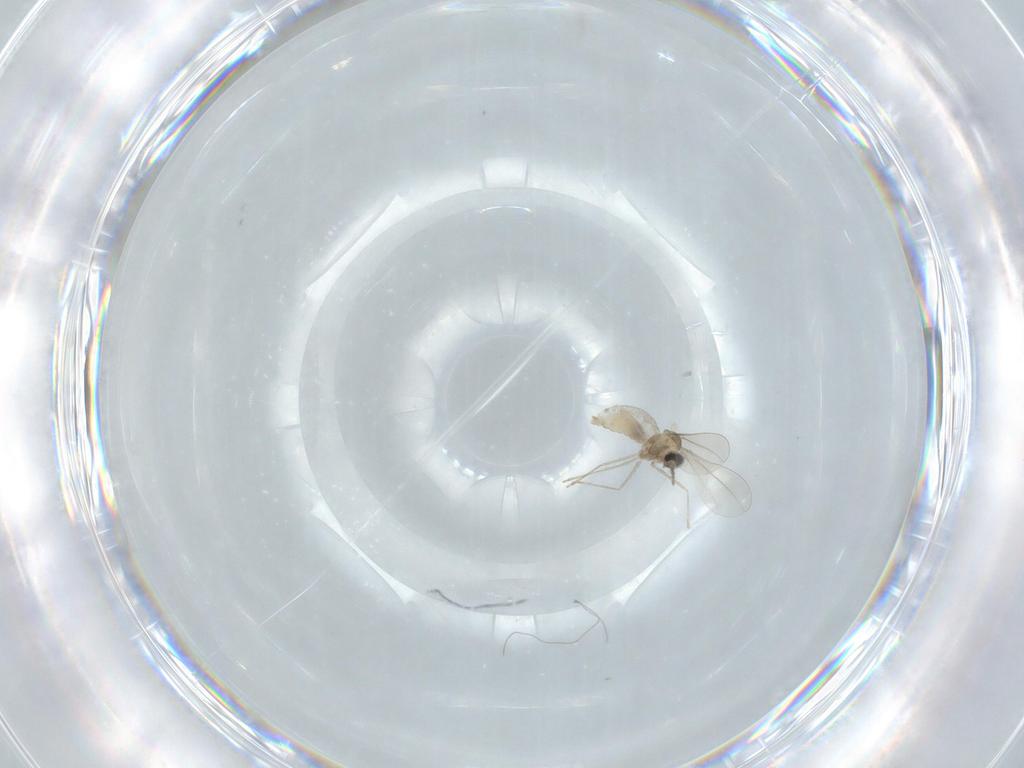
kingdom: Animalia
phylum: Arthropoda
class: Insecta
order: Diptera
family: Cecidomyiidae
